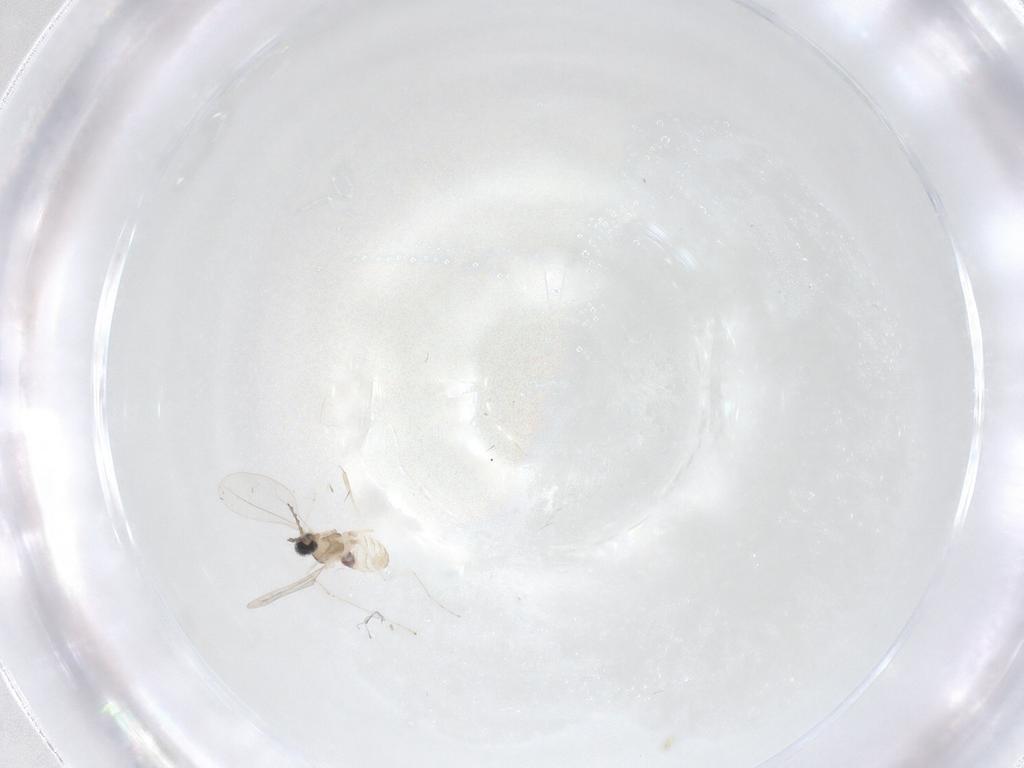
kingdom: Animalia
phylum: Arthropoda
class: Insecta
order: Diptera
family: Cecidomyiidae
